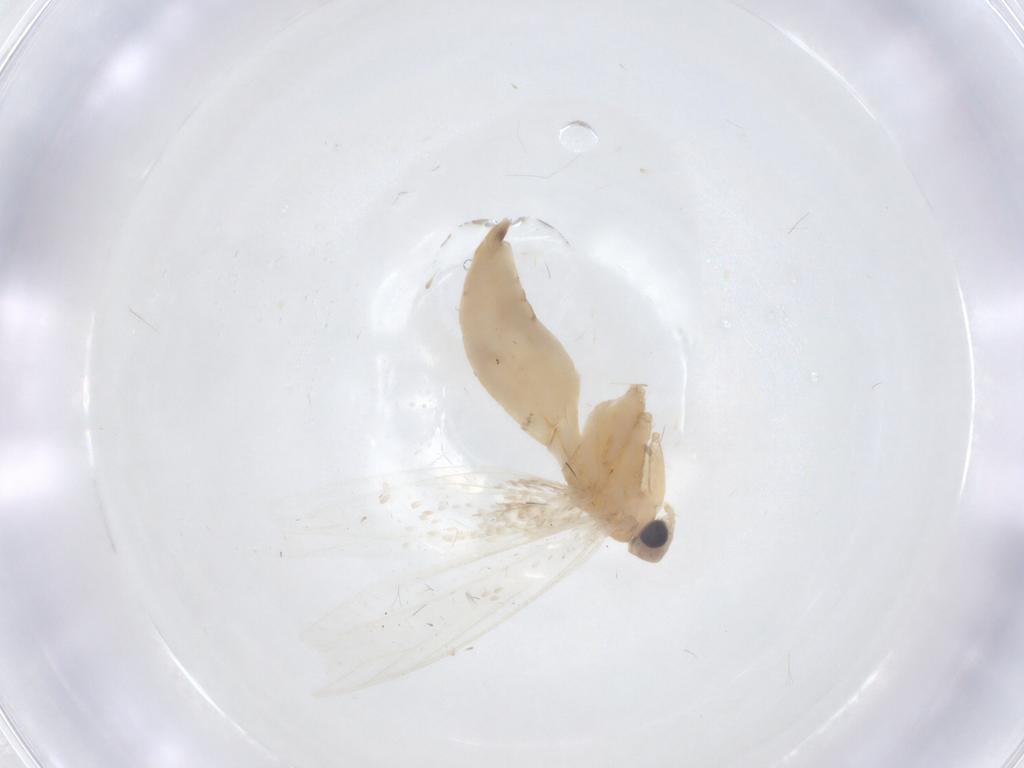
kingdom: Animalia
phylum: Arthropoda
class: Insecta
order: Lepidoptera
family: Tineidae
